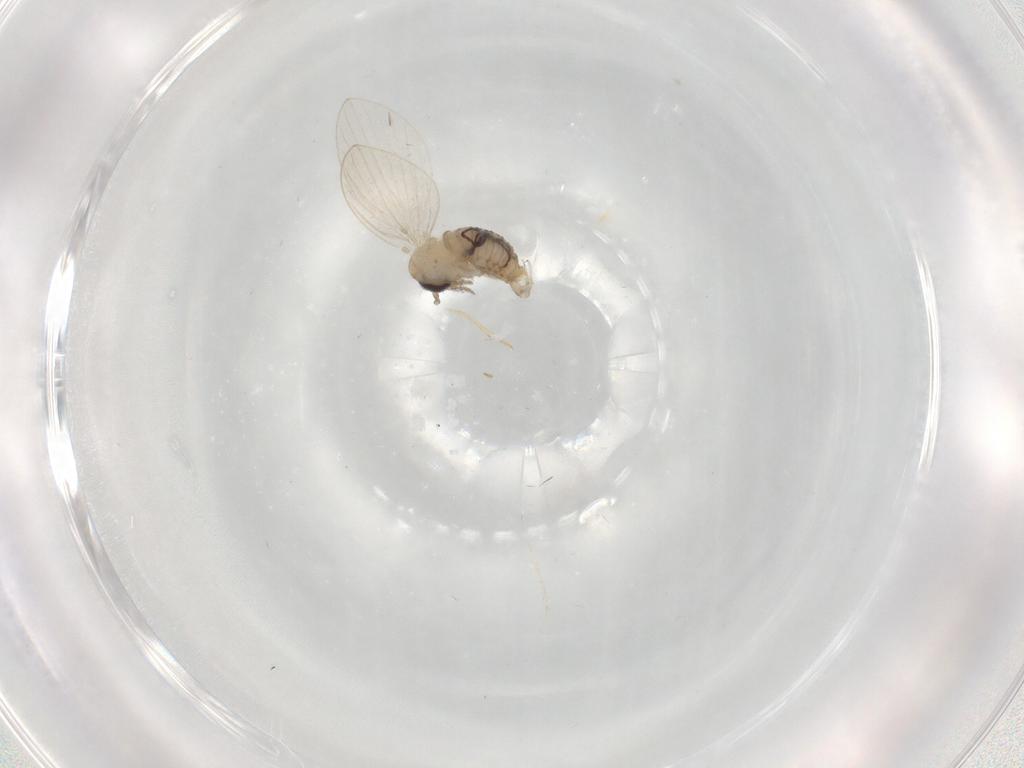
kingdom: Animalia
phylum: Arthropoda
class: Insecta
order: Diptera
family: Psychodidae
